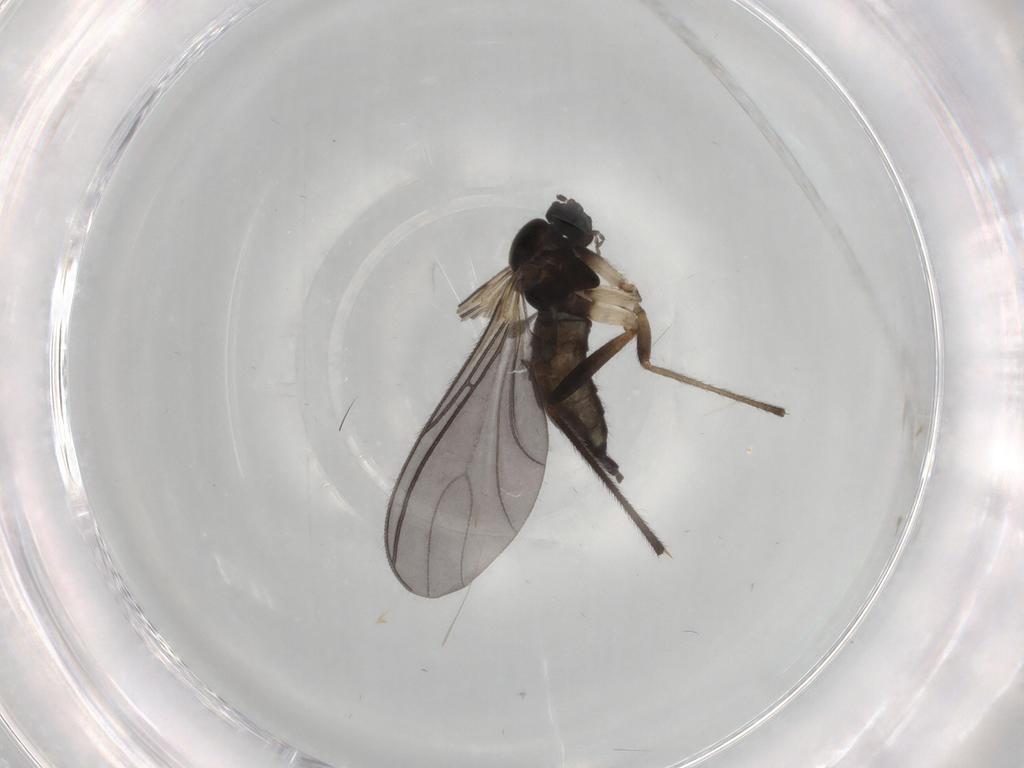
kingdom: Animalia
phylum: Arthropoda
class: Insecta
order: Diptera
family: Sciaridae
